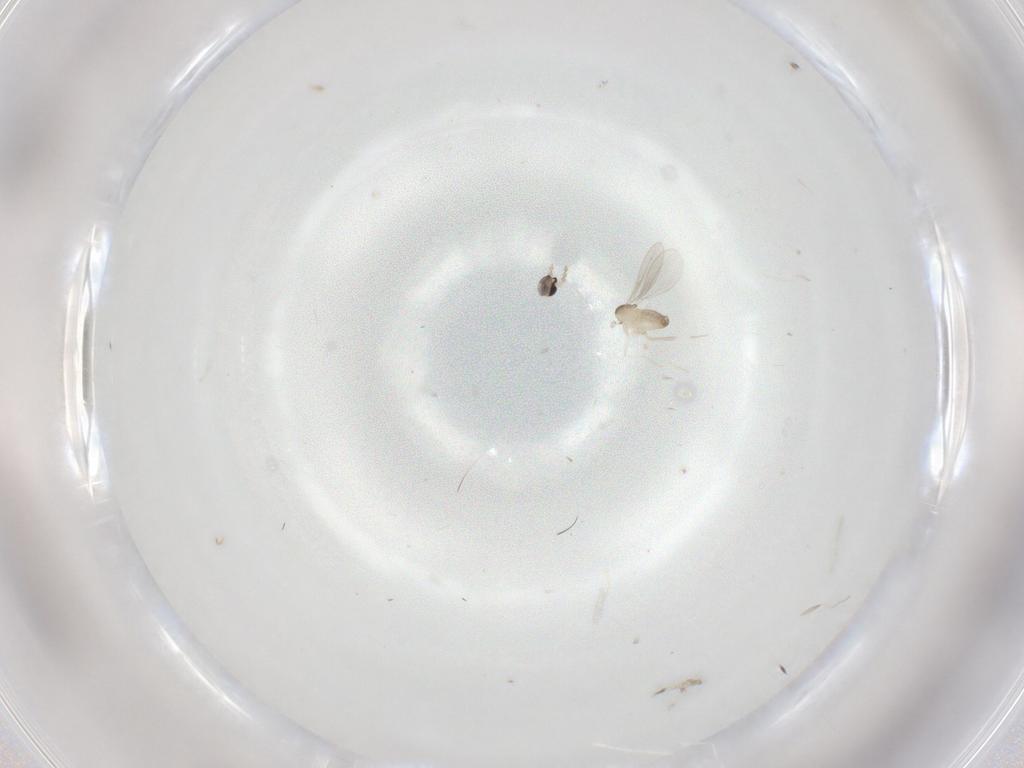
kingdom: Animalia
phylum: Arthropoda
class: Insecta
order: Diptera
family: Cecidomyiidae
